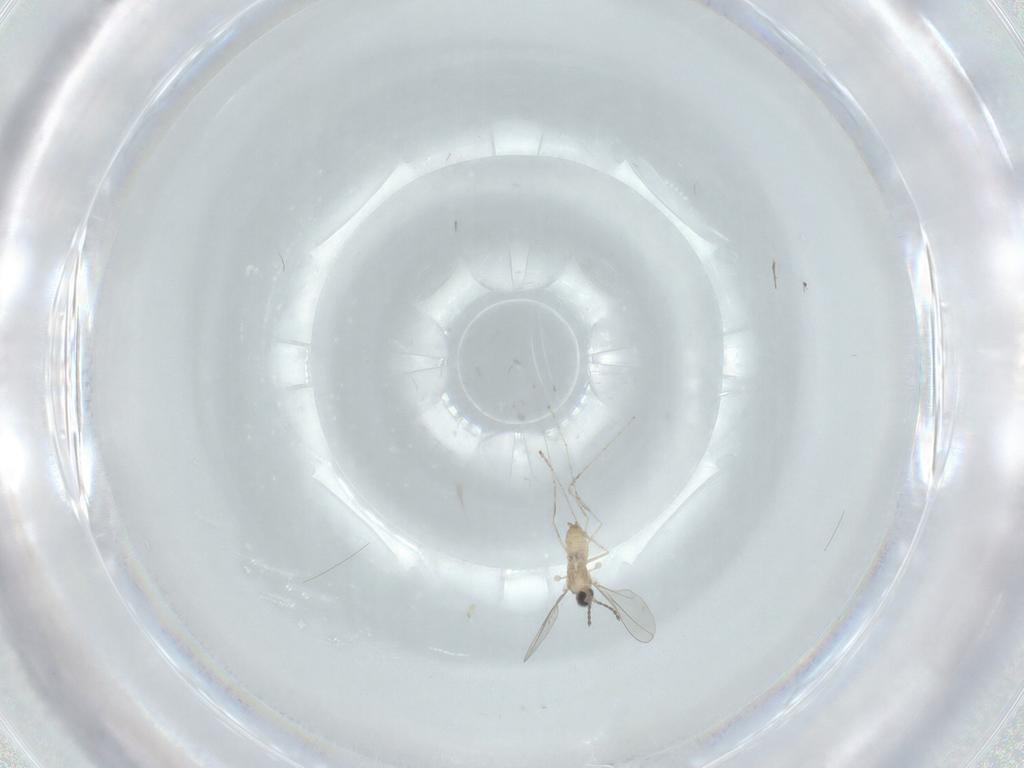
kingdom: Animalia
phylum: Arthropoda
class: Insecta
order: Diptera
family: Cecidomyiidae
